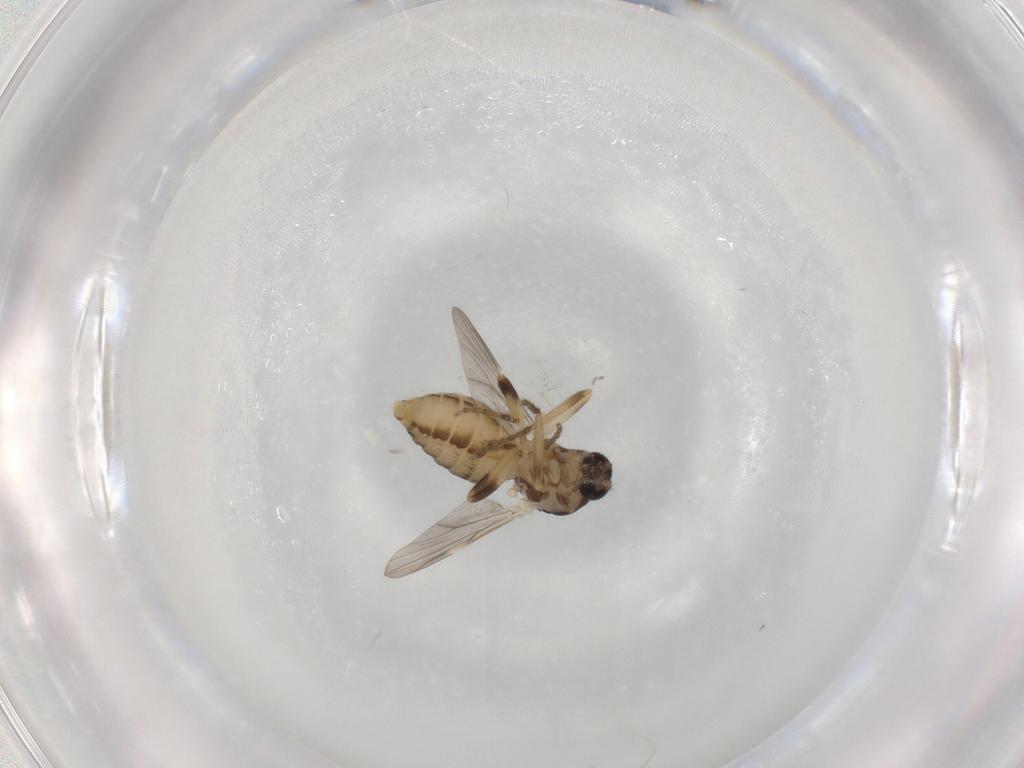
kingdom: Animalia
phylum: Arthropoda
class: Insecta
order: Diptera
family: Ceratopogonidae
